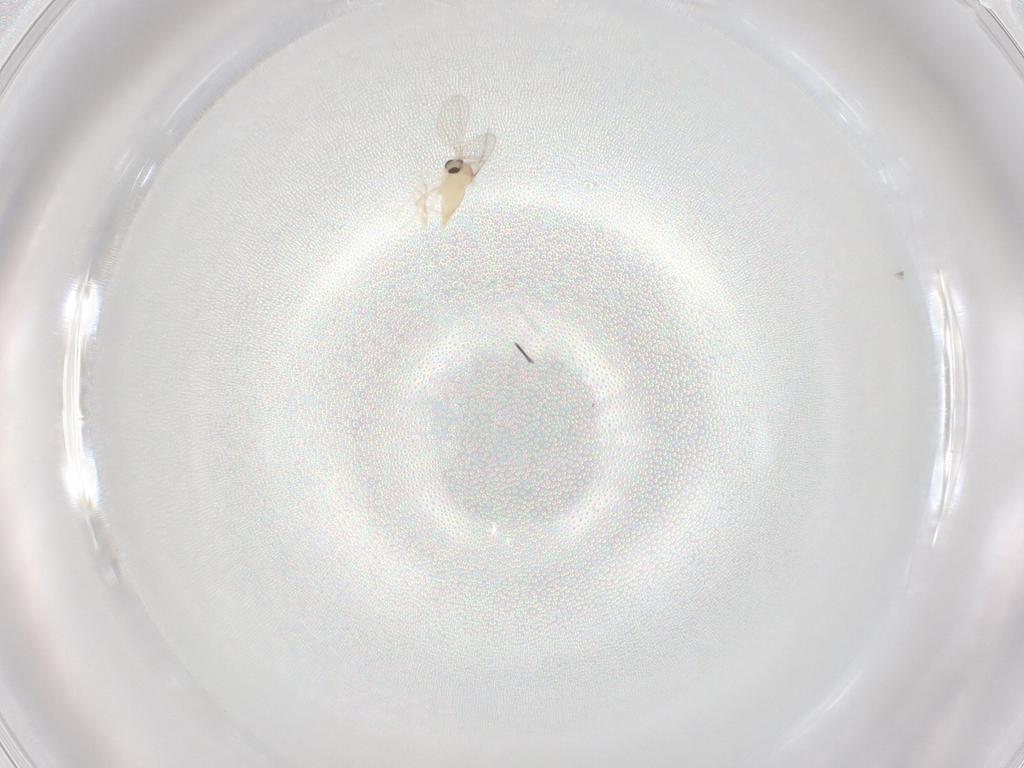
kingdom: Animalia
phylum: Arthropoda
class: Insecta
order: Diptera
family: Cecidomyiidae
